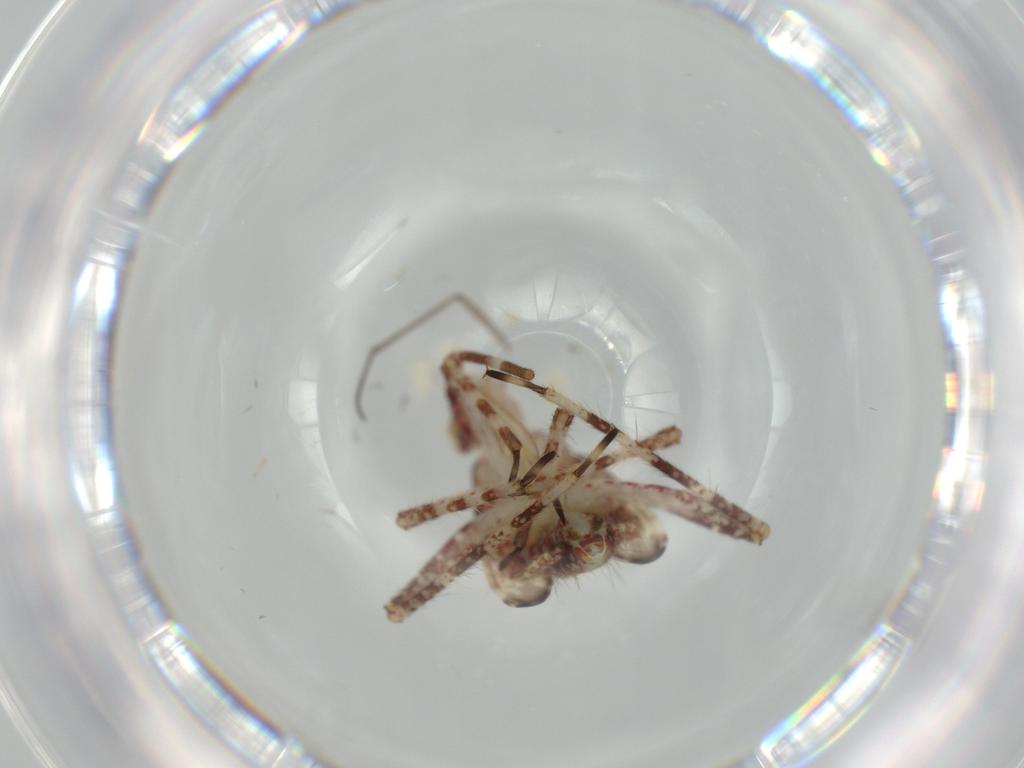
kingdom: Animalia
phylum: Arthropoda
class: Insecta
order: Hemiptera
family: Miridae
